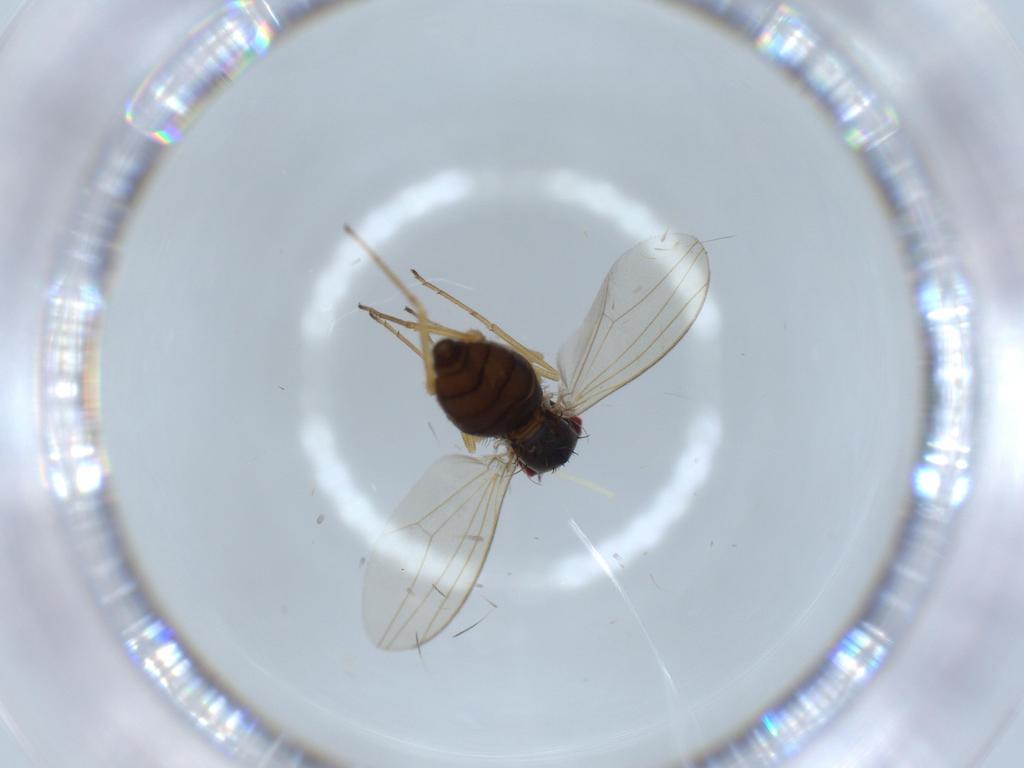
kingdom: Animalia
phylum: Arthropoda
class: Insecta
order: Diptera
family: Dolichopodidae
